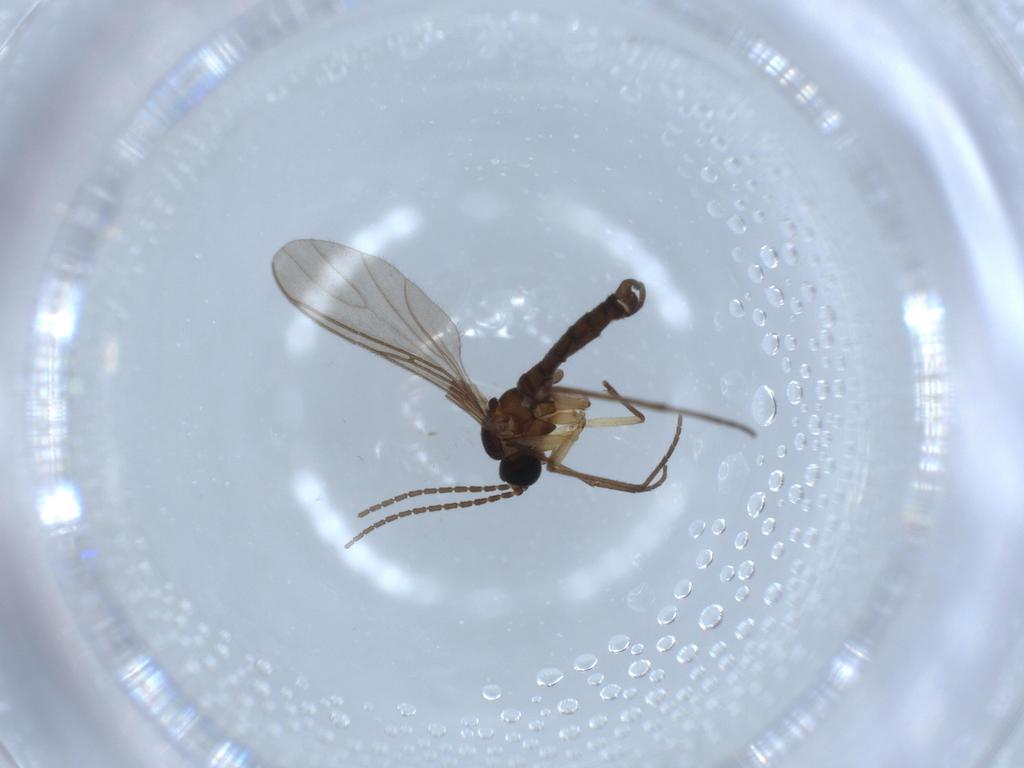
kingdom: Animalia
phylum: Arthropoda
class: Insecta
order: Diptera
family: Sciaridae
